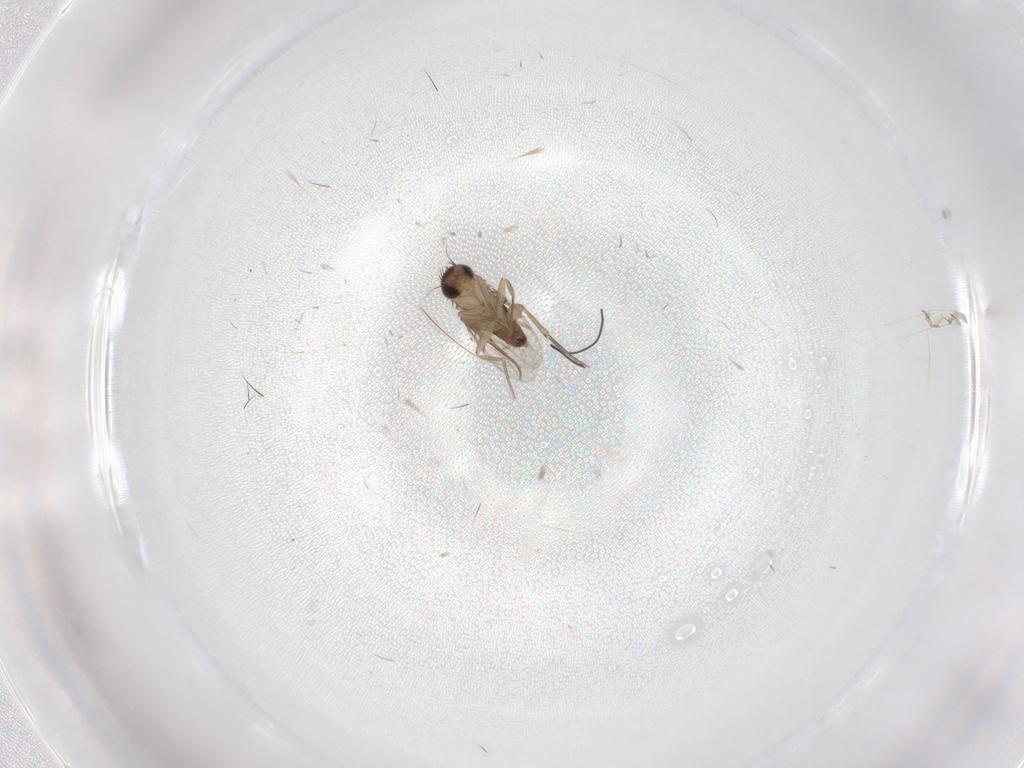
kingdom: Animalia
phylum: Arthropoda
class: Insecta
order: Diptera
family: Phoridae
